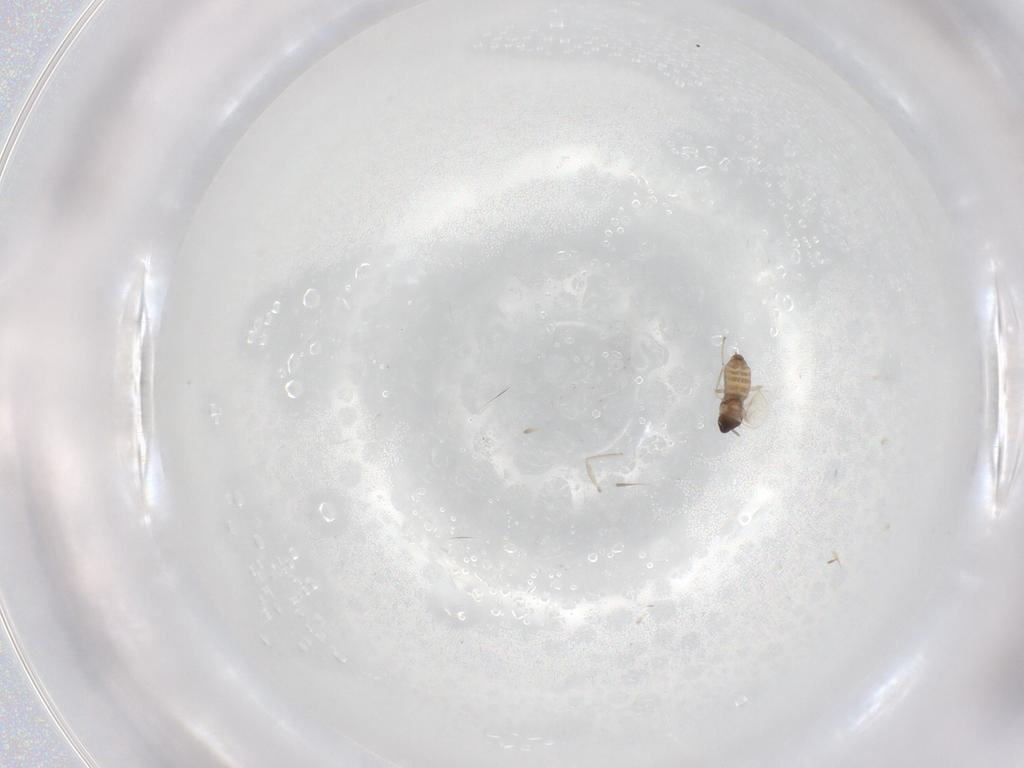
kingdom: Animalia
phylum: Arthropoda
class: Insecta
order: Diptera
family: Cecidomyiidae
